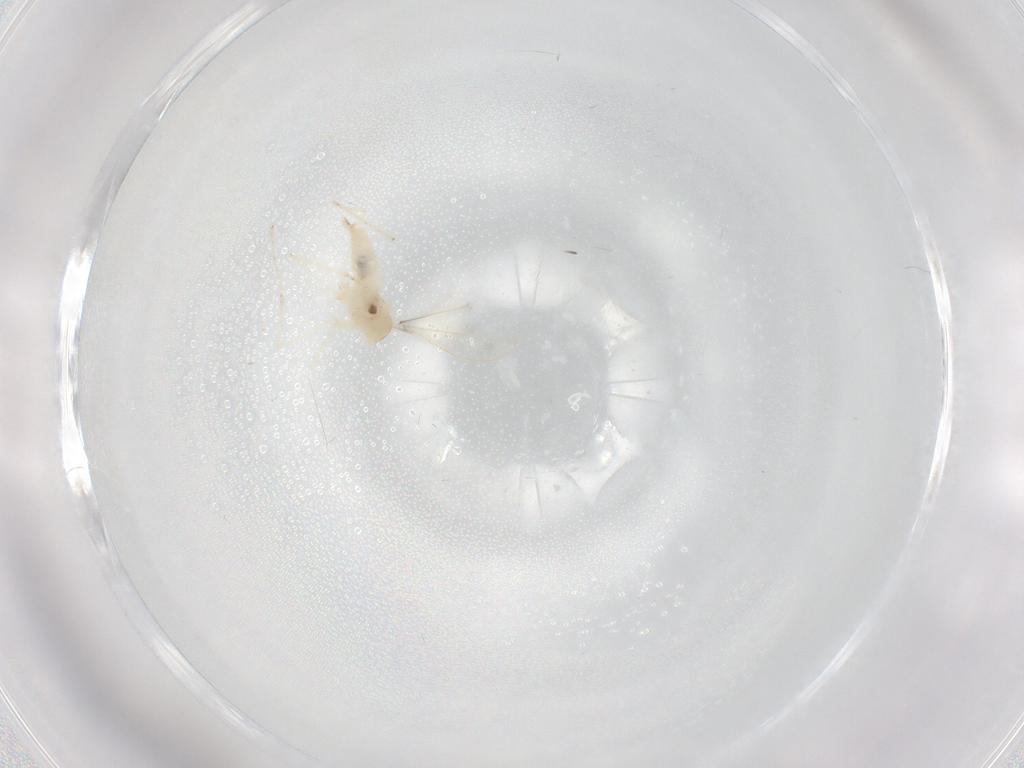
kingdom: Animalia
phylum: Arthropoda
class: Insecta
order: Diptera
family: Cecidomyiidae
